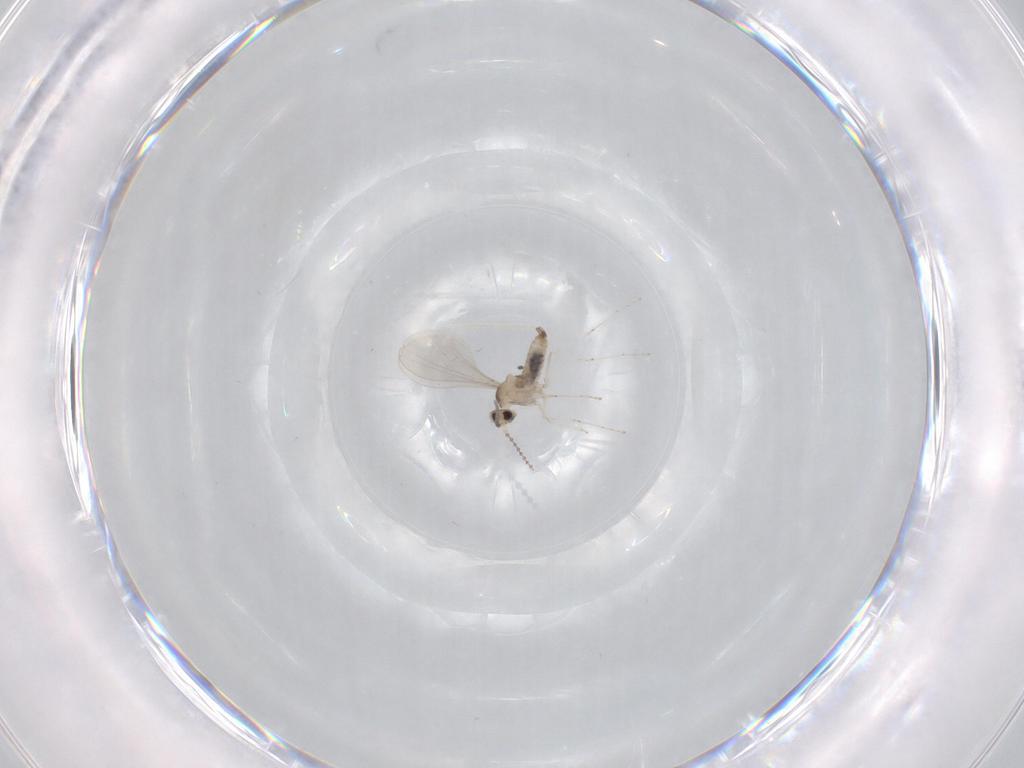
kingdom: Animalia
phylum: Arthropoda
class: Insecta
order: Diptera
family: Cecidomyiidae
